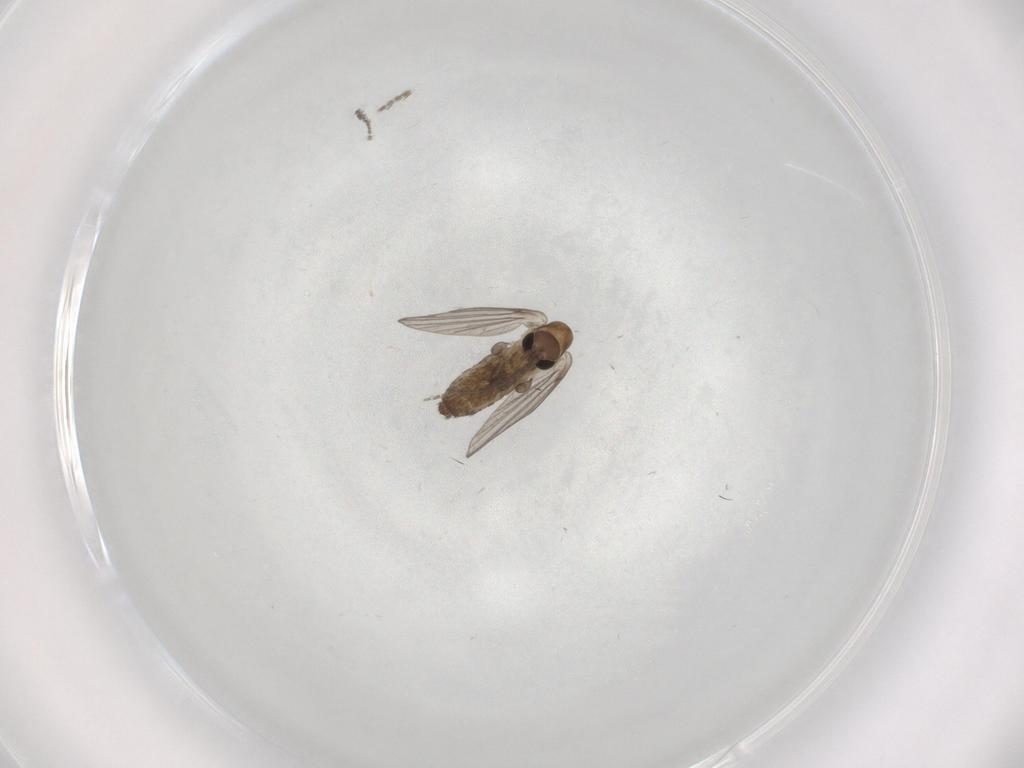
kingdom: Animalia
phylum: Arthropoda
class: Insecta
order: Diptera
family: Psychodidae
